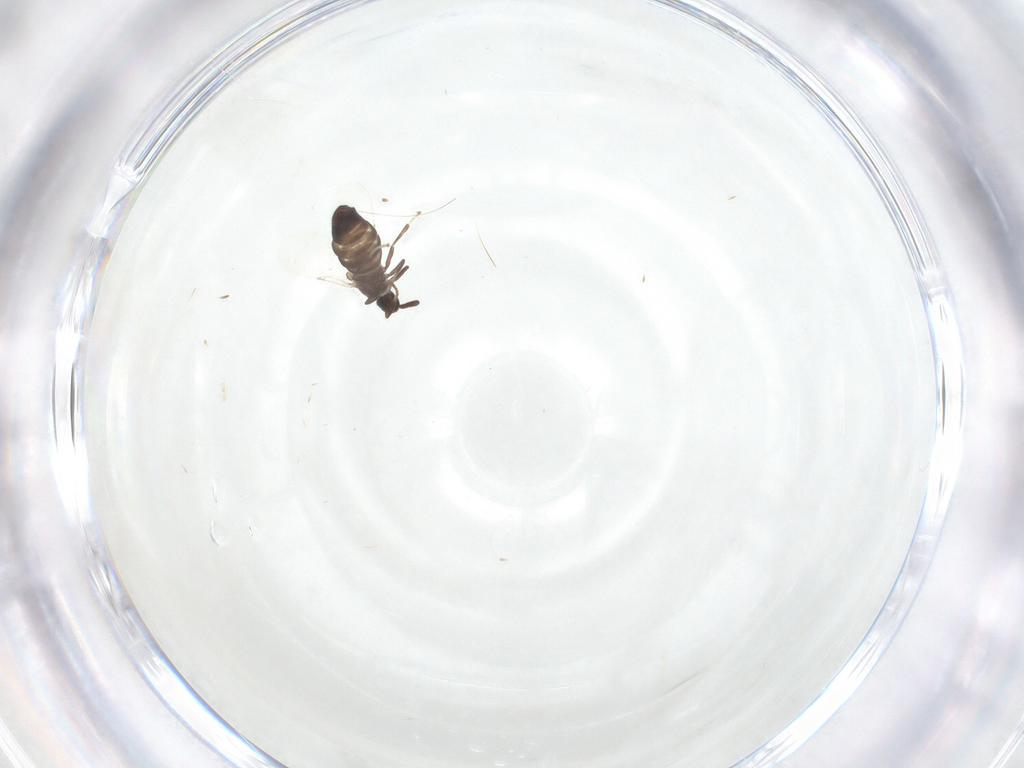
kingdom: Animalia
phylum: Arthropoda
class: Insecta
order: Diptera
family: Scatopsidae
